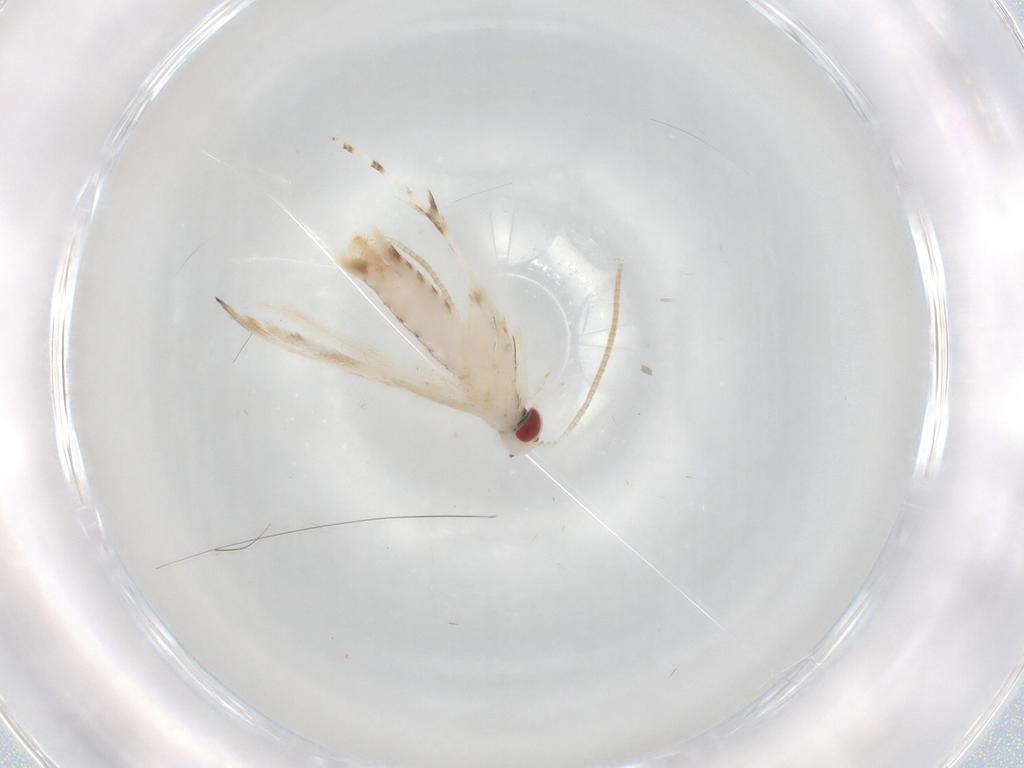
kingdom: Animalia
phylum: Arthropoda
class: Insecta
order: Lepidoptera
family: Gracillariidae
